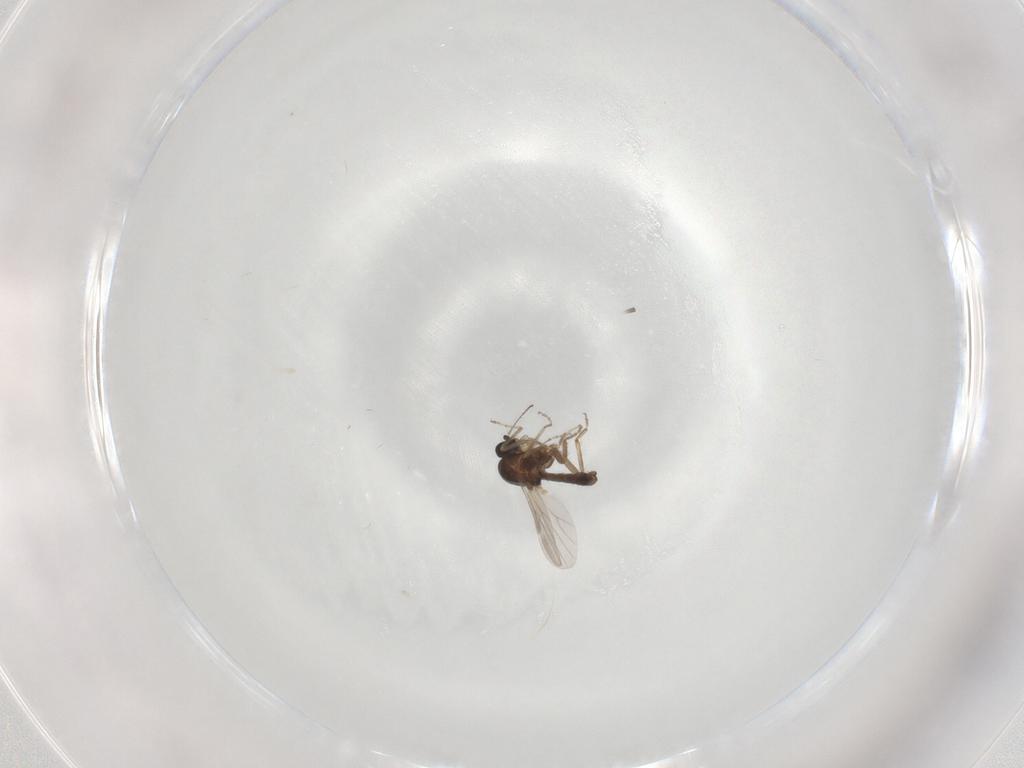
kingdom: Animalia
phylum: Arthropoda
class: Insecta
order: Diptera
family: Ceratopogonidae
